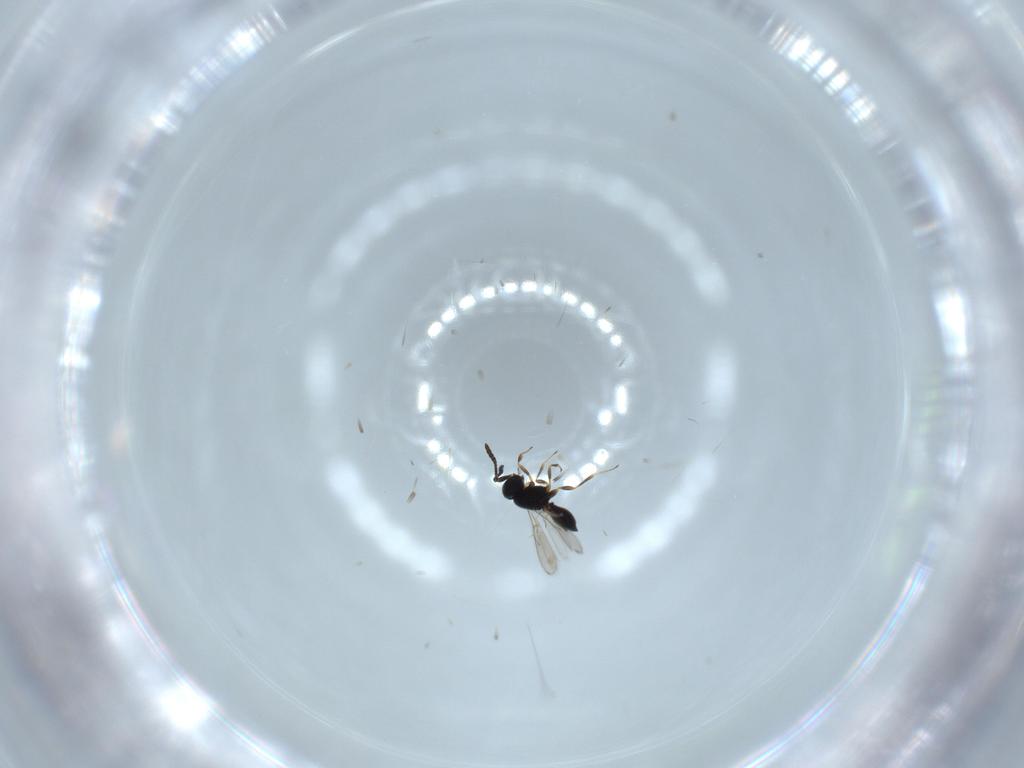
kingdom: Animalia
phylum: Arthropoda
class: Insecta
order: Hymenoptera
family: Scelionidae
